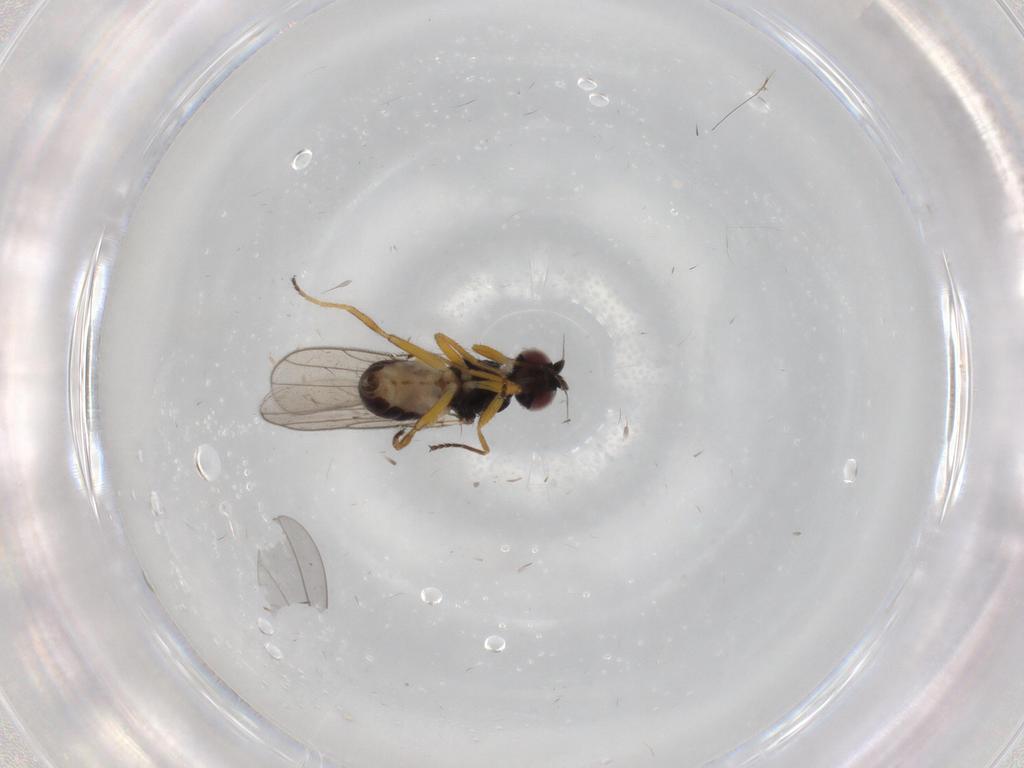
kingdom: Animalia
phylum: Arthropoda
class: Insecta
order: Diptera
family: Chloropidae
